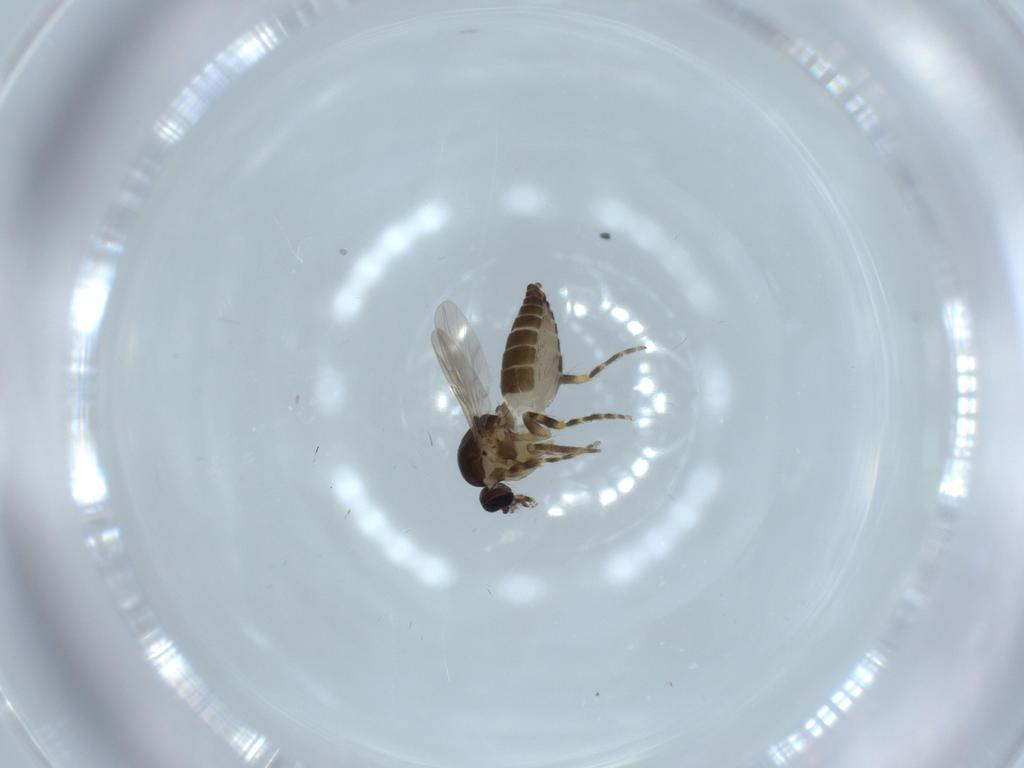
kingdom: Animalia
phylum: Arthropoda
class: Insecta
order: Diptera
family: Ceratopogonidae
